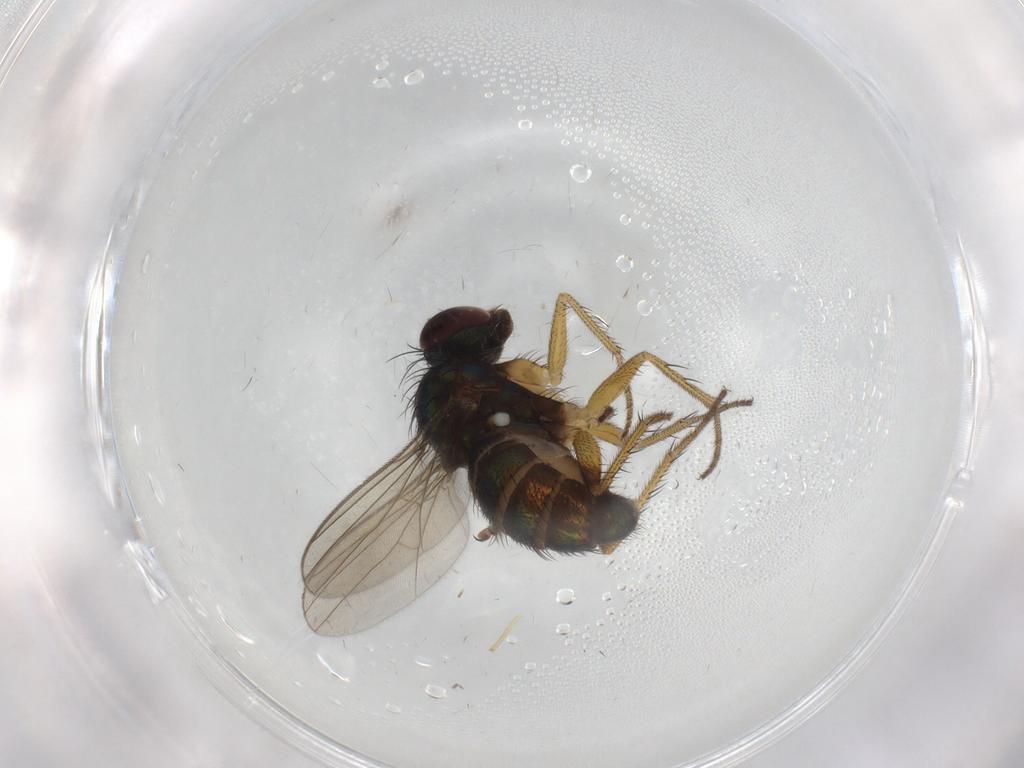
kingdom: Animalia
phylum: Arthropoda
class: Insecta
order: Diptera
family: Dolichopodidae
